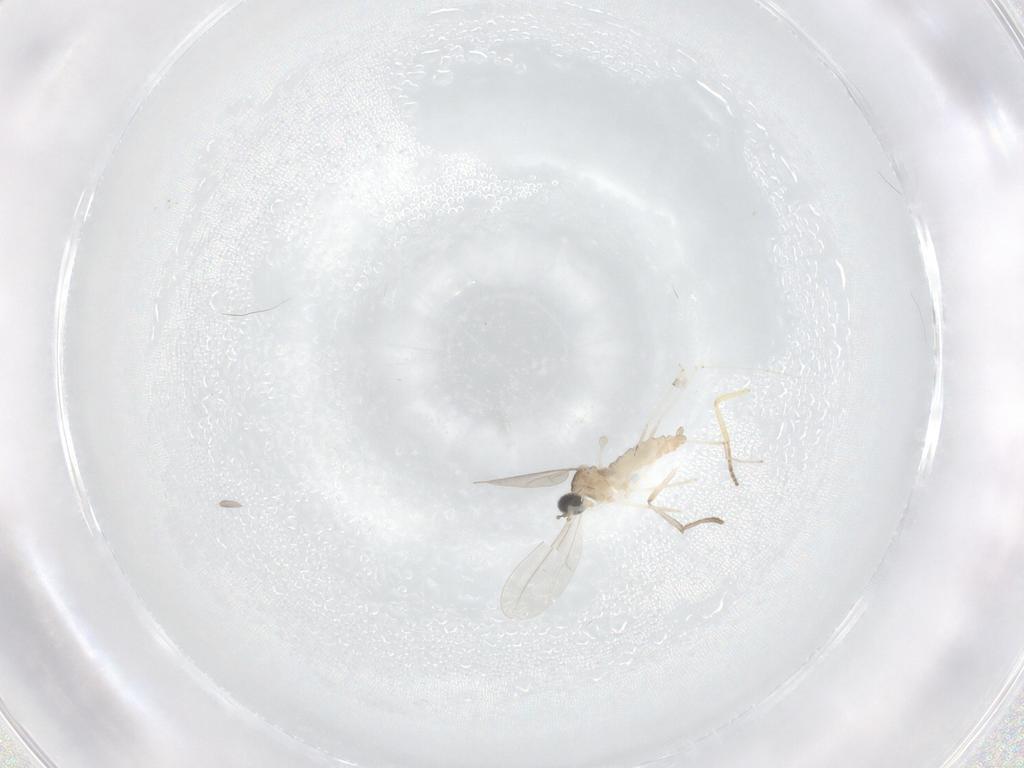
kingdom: Animalia
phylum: Arthropoda
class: Insecta
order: Diptera
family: Cecidomyiidae
